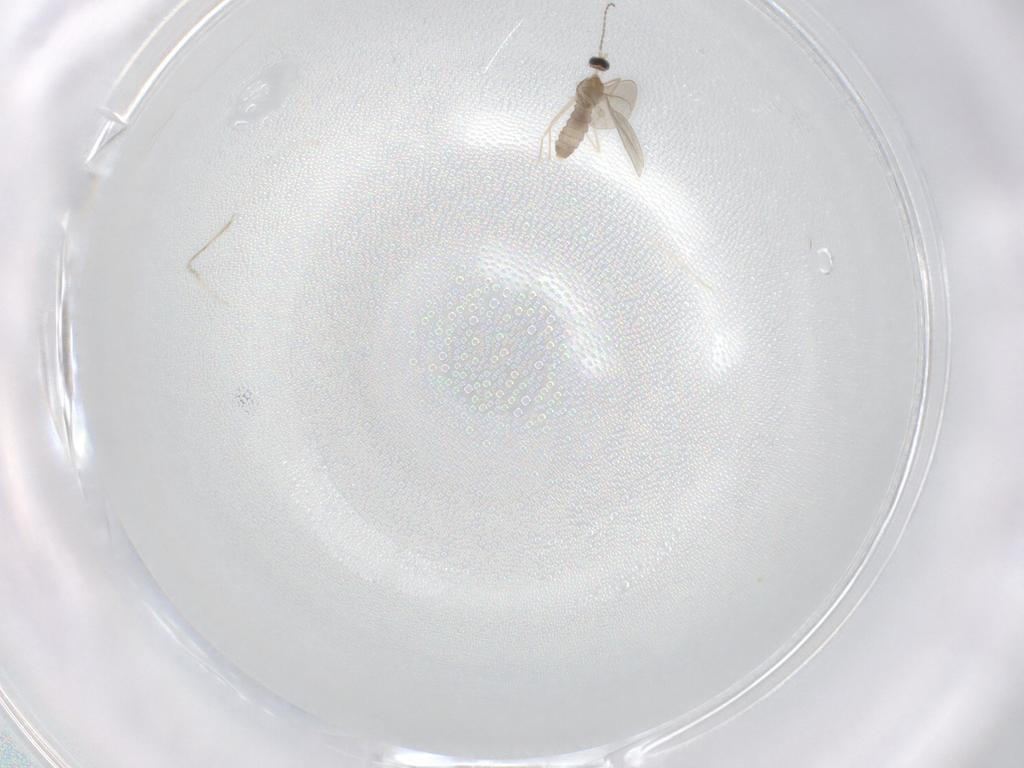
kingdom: Animalia
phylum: Arthropoda
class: Insecta
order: Diptera
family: Cecidomyiidae
